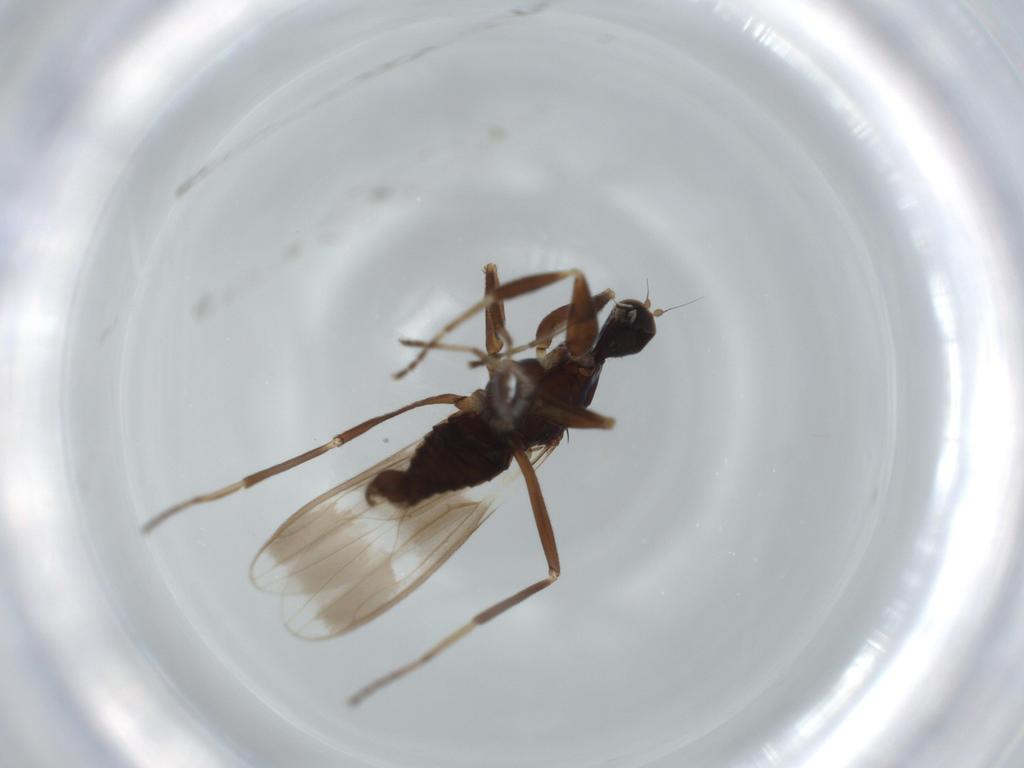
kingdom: Animalia
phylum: Arthropoda
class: Insecta
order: Diptera
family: Hybotidae
